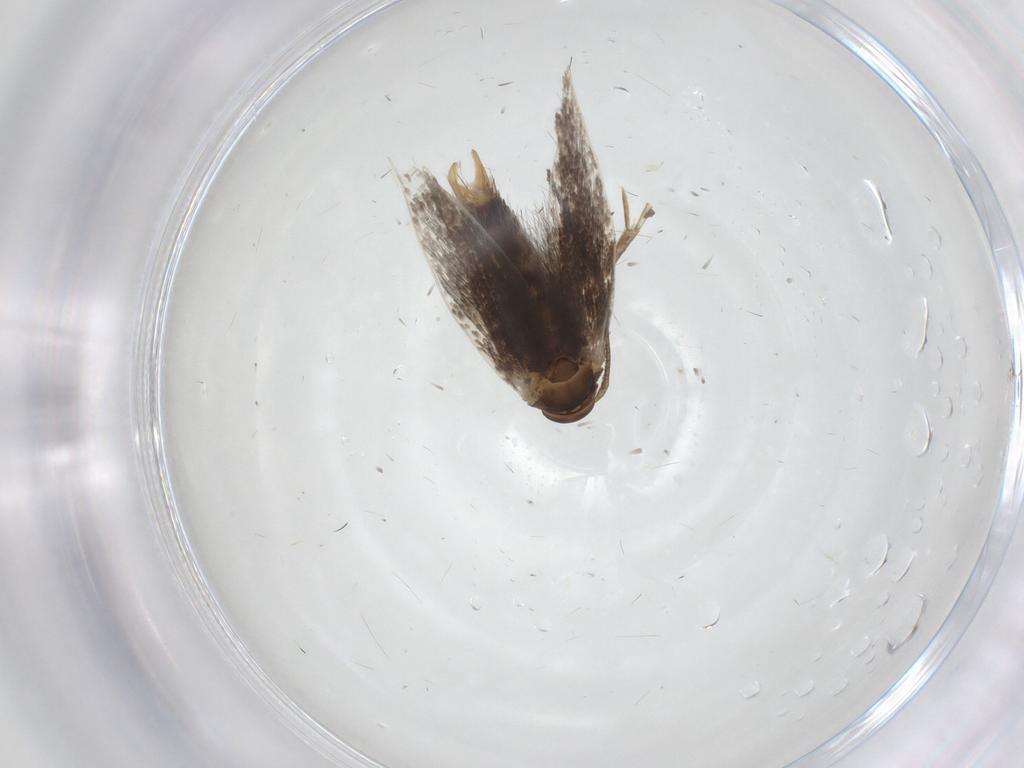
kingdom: Animalia
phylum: Arthropoda
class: Insecta
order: Lepidoptera
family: Elachistidae
